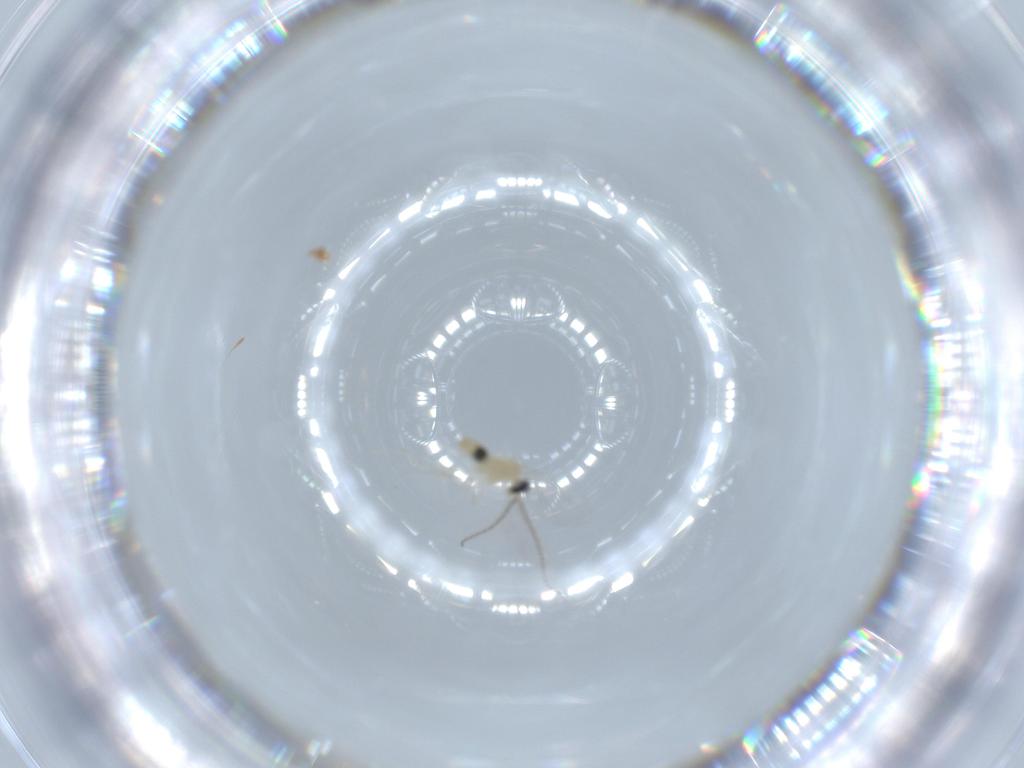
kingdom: Animalia
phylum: Arthropoda
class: Insecta
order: Diptera
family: Cecidomyiidae
